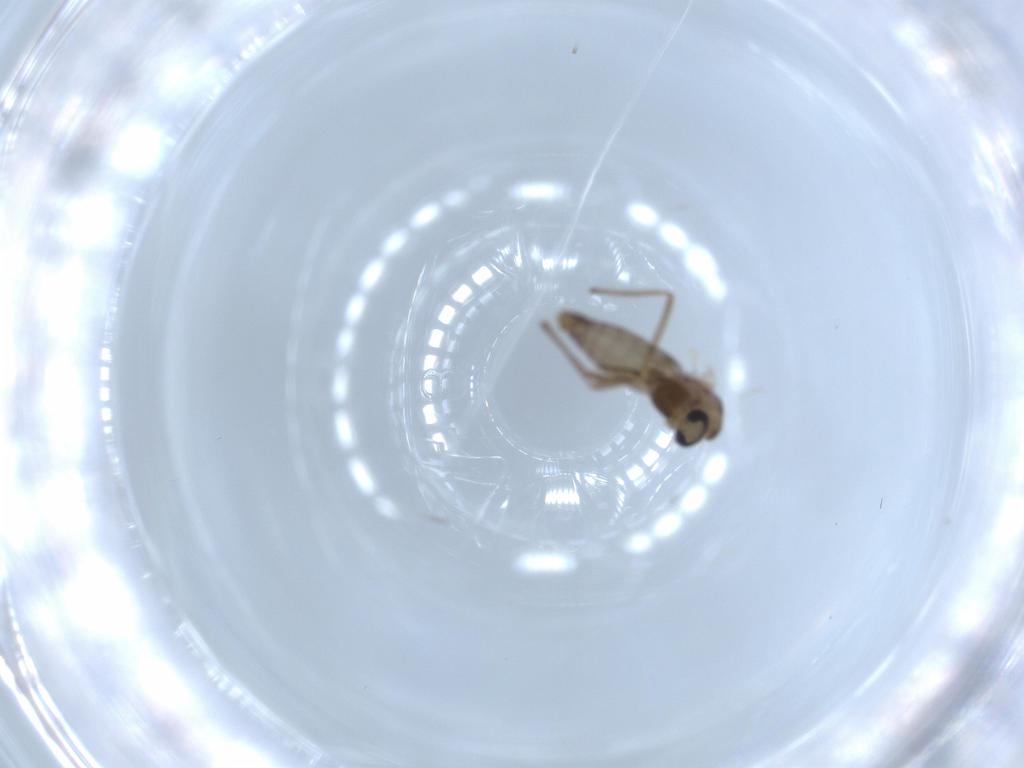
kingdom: Animalia
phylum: Arthropoda
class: Insecta
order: Diptera
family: Chironomidae
